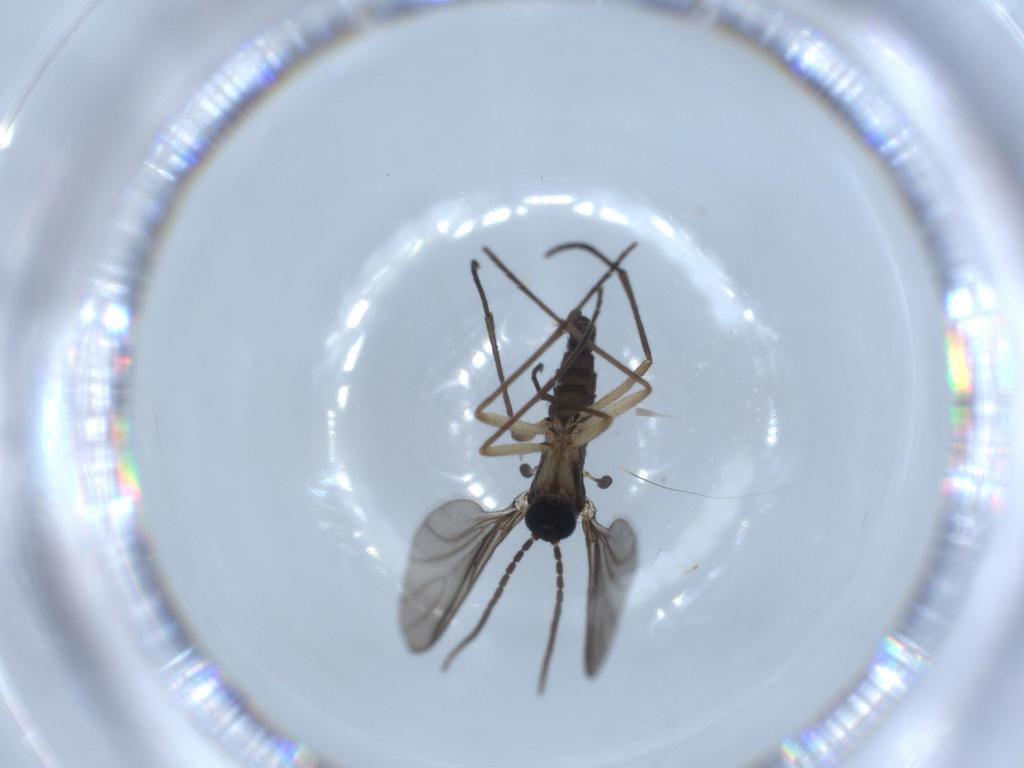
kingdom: Animalia
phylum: Arthropoda
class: Insecta
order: Diptera
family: Sciaridae
